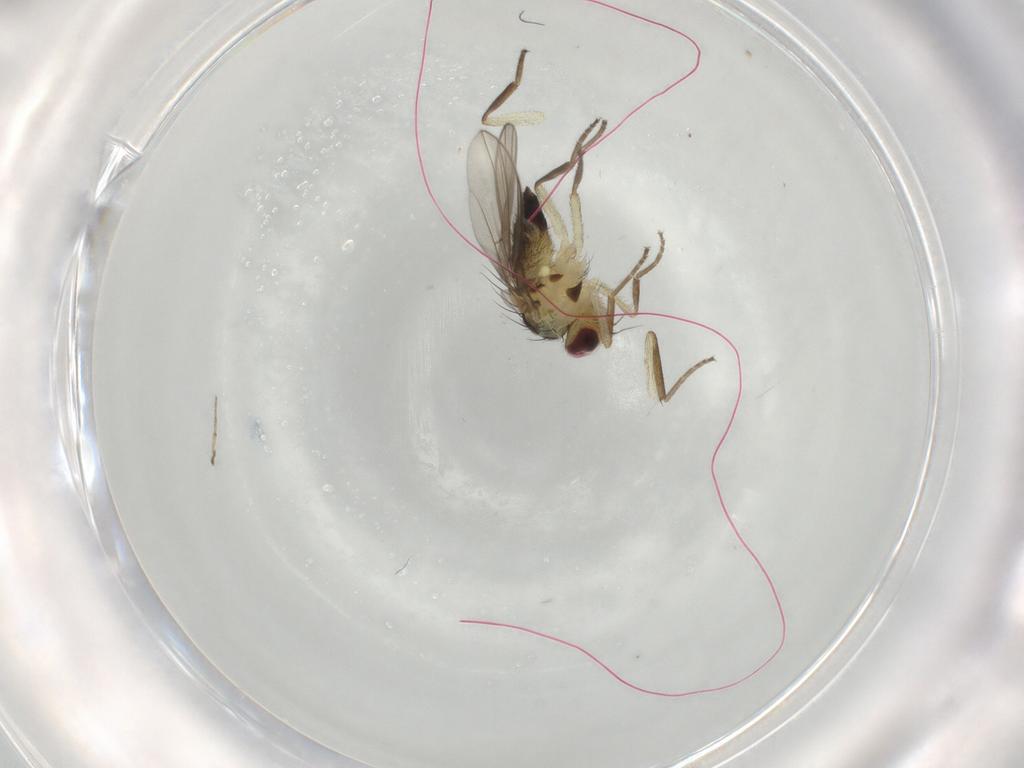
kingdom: Animalia
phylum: Arthropoda
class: Insecta
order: Diptera
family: Agromyzidae
